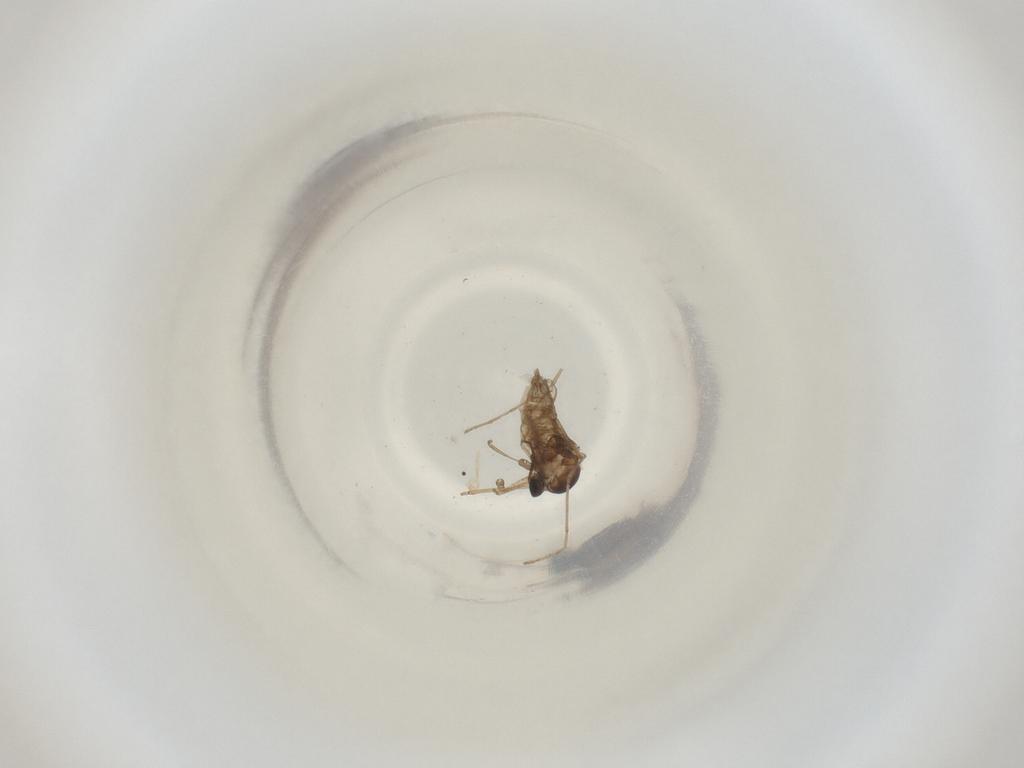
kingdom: Animalia
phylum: Arthropoda
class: Insecta
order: Diptera
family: Cecidomyiidae
